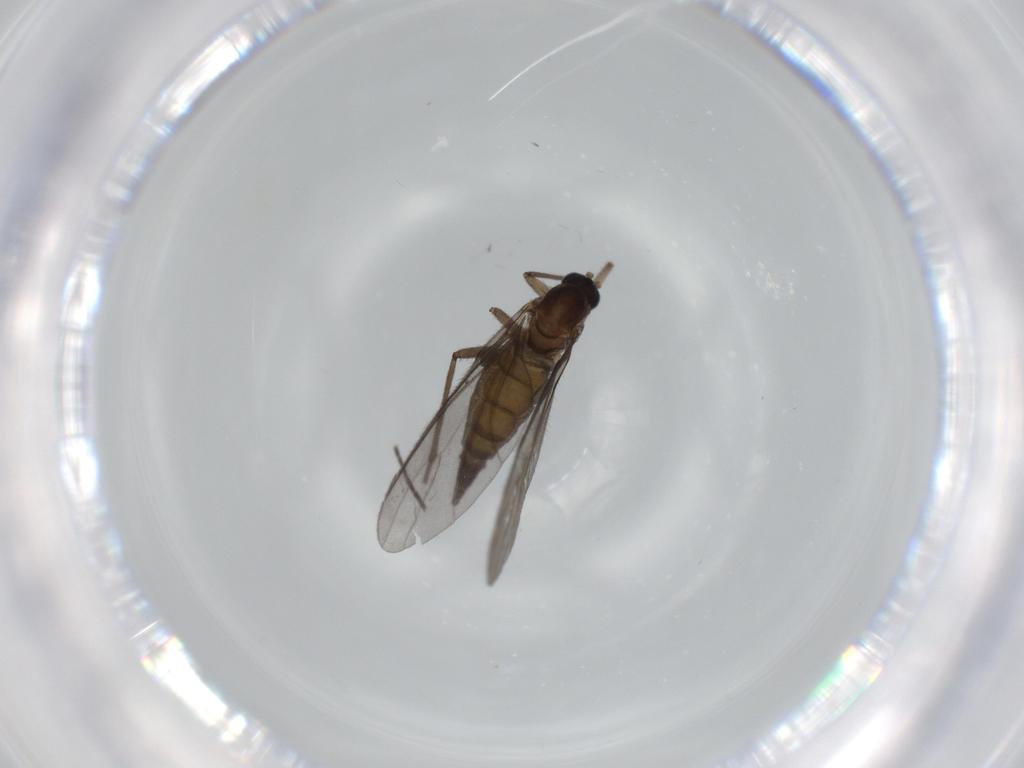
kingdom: Animalia
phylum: Arthropoda
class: Insecta
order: Diptera
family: Sciaridae
